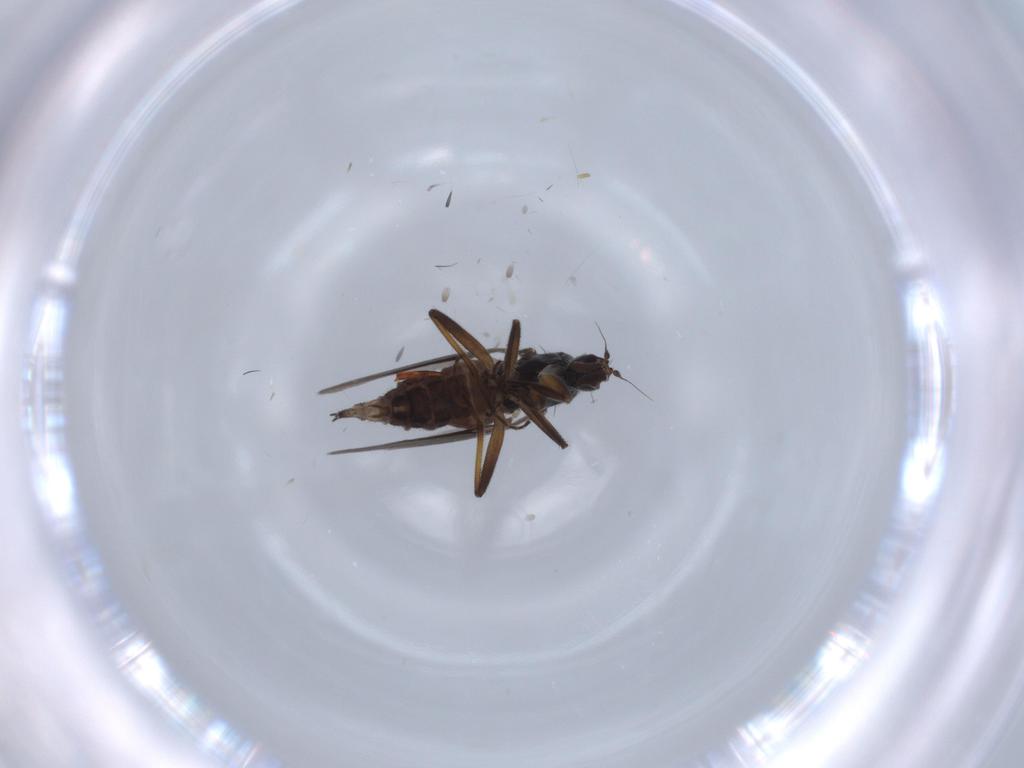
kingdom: Animalia
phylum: Arthropoda
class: Insecta
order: Diptera
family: Hybotidae
